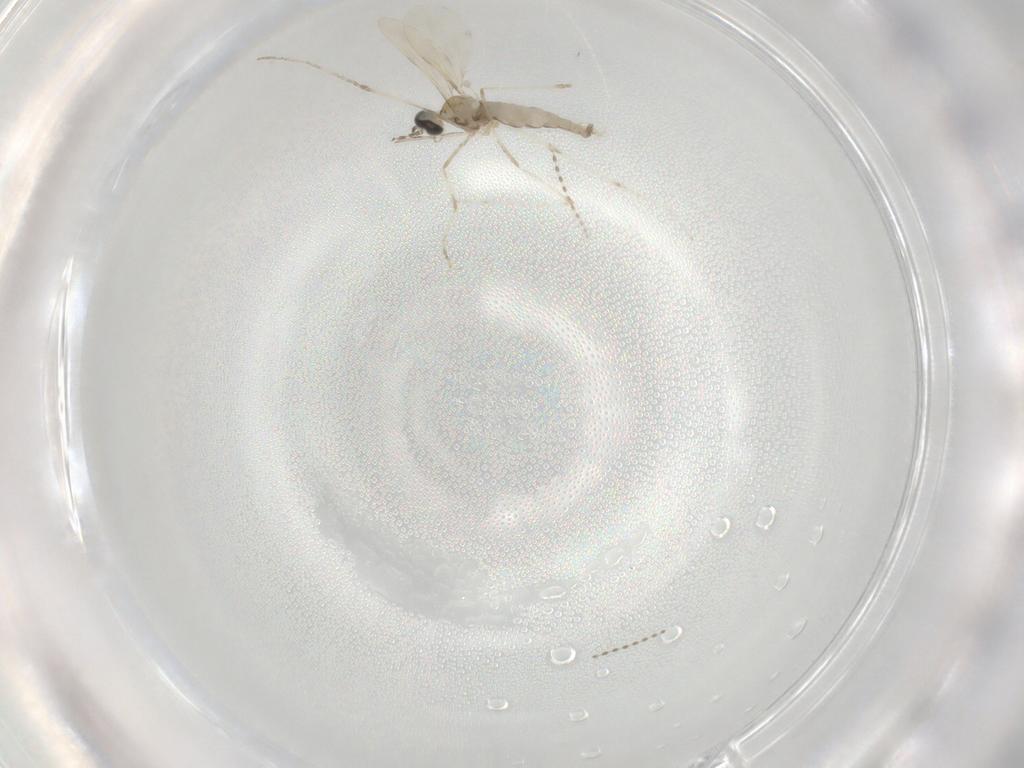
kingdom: Animalia
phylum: Arthropoda
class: Insecta
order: Diptera
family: Cecidomyiidae
